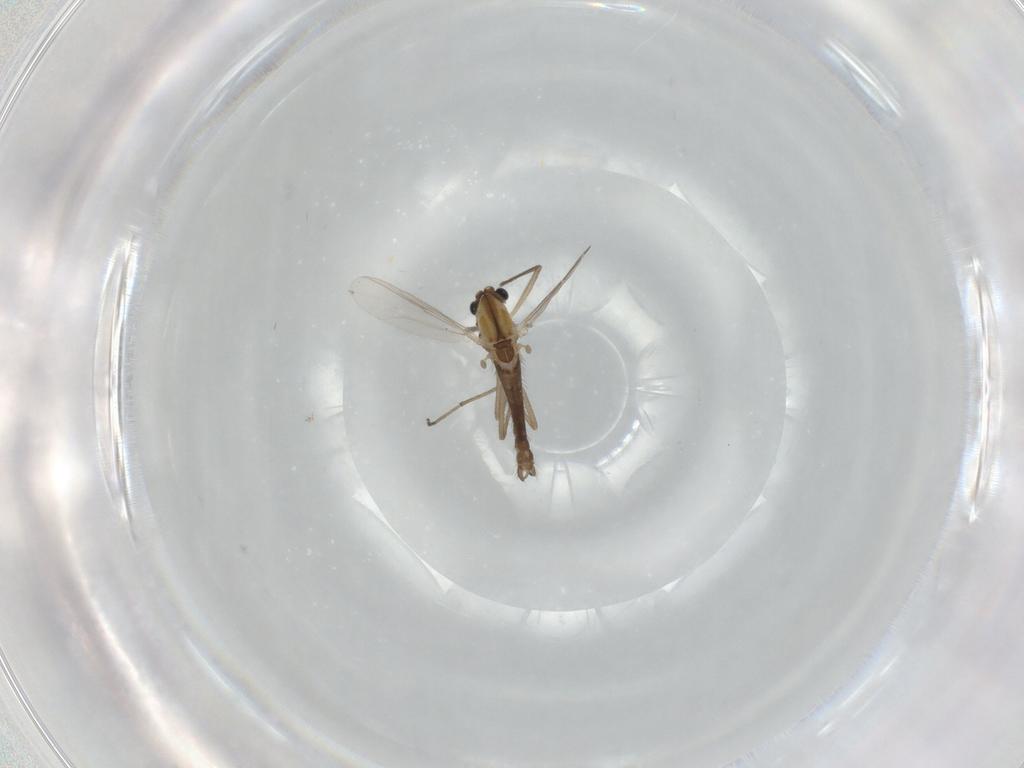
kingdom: Animalia
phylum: Arthropoda
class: Insecta
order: Diptera
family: Chironomidae
